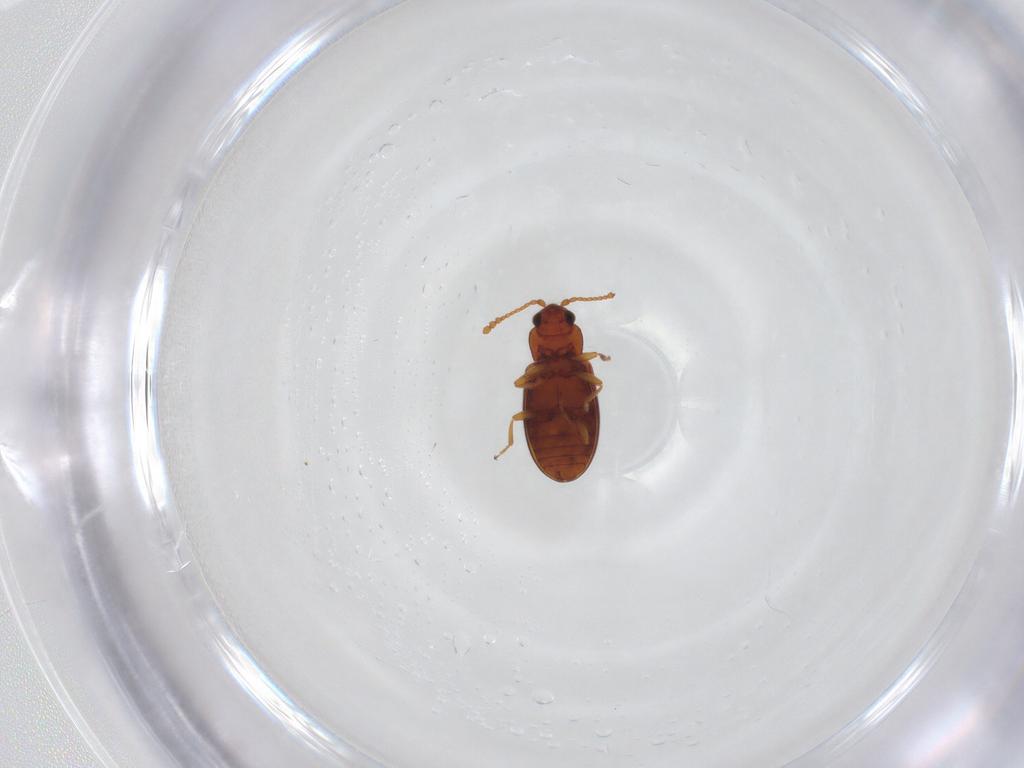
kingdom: Animalia
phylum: Arthropoda
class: Insecta
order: Coleoptera
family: Cryptophagidae
